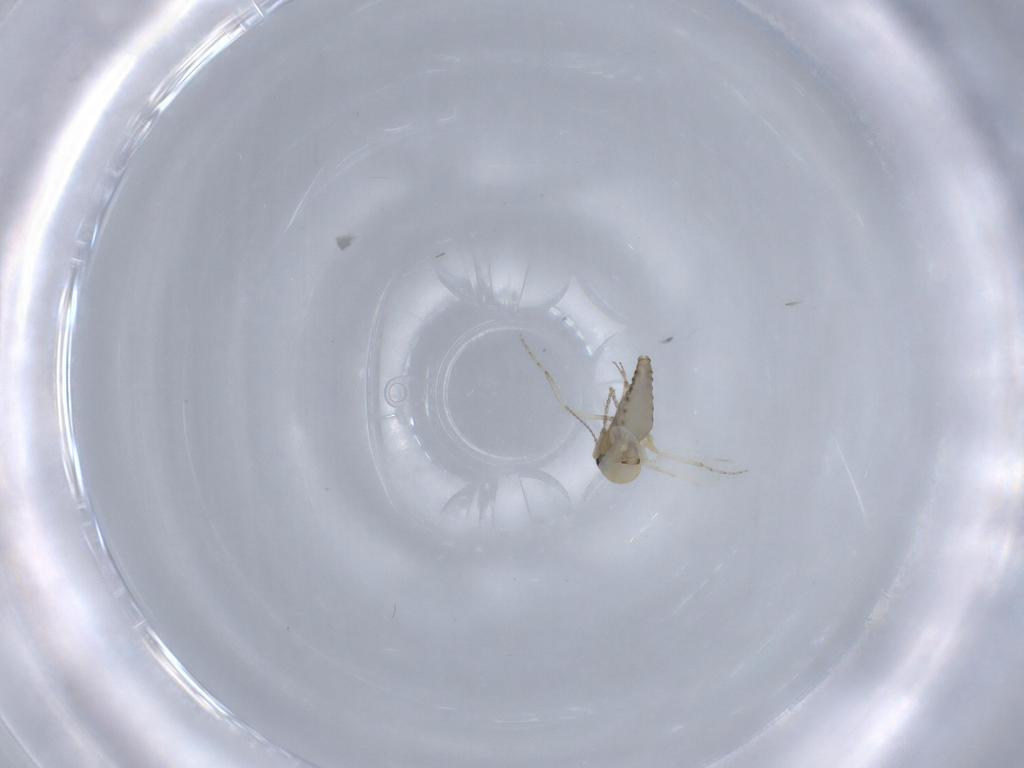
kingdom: Animalia
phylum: Arthropoda
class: Insecta
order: Diptera
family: Ceratopogonidae
